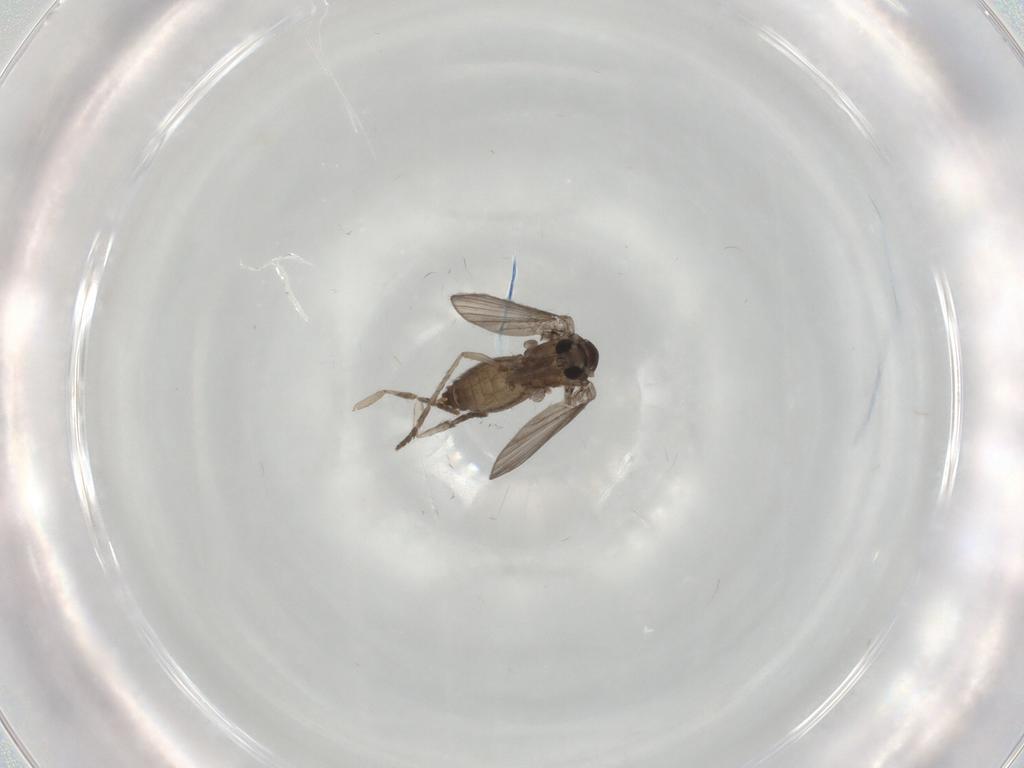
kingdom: Animalia
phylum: Arthropoda
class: Insecta
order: Diptera
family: Psychodidae
